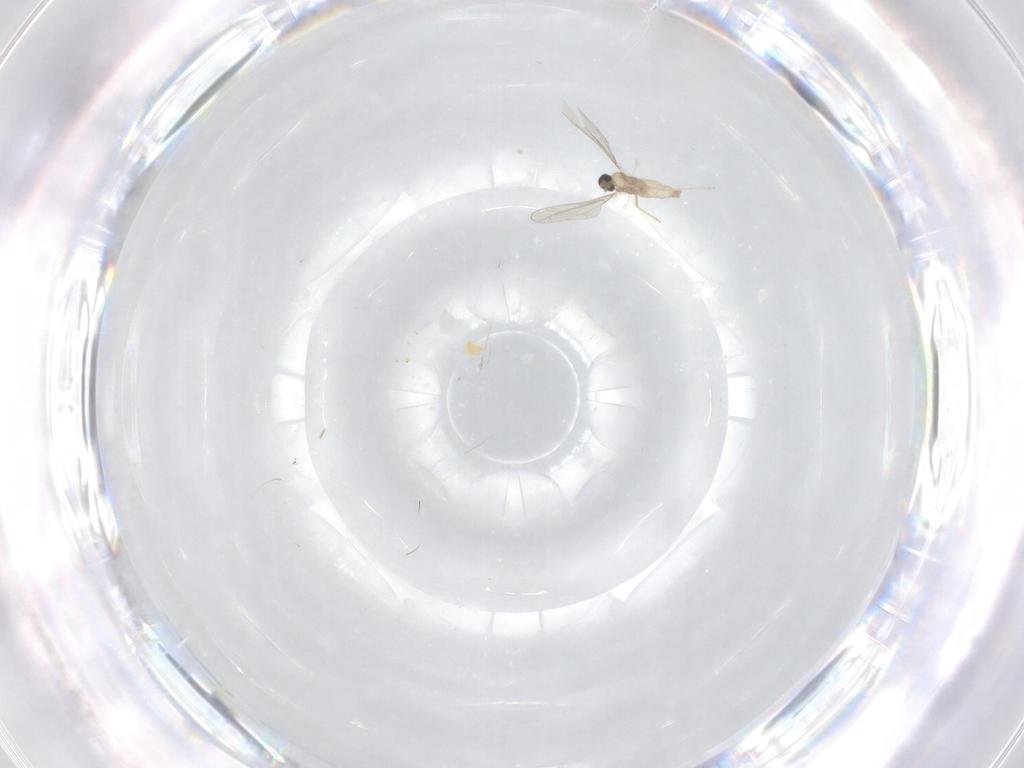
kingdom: Animalia
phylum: Arthropoda
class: Insecta
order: Diptera
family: Asilidae
